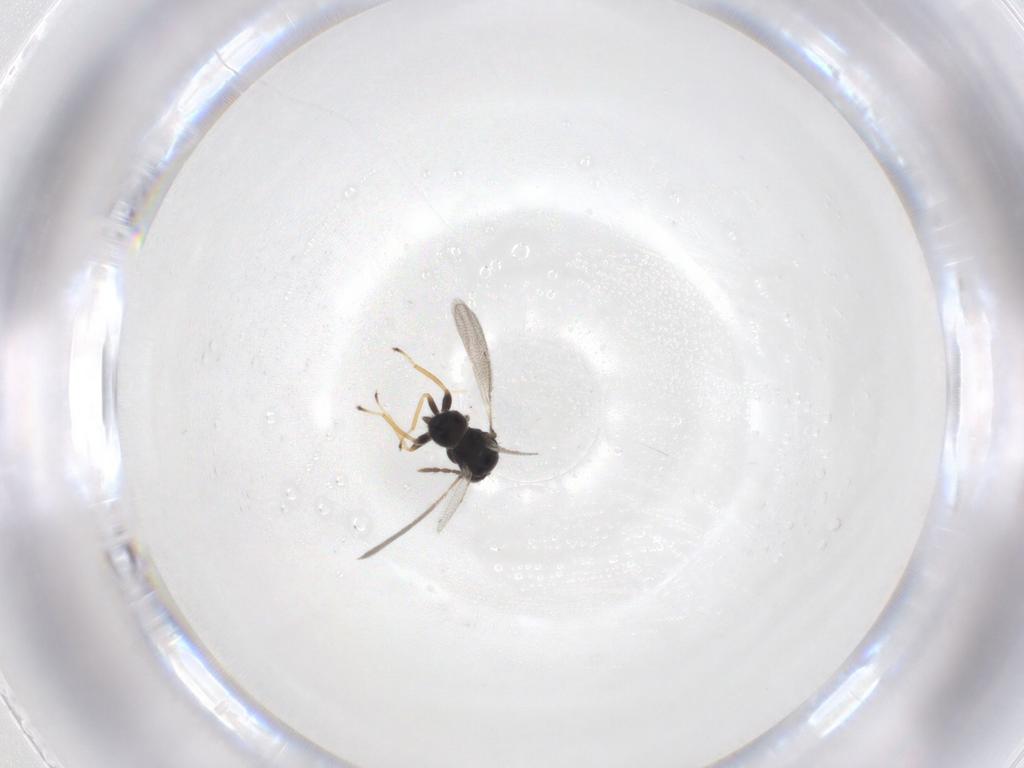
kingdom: Animalia
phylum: Arthropoda
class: Insecta
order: Hymenoptera
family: Eulophidae
